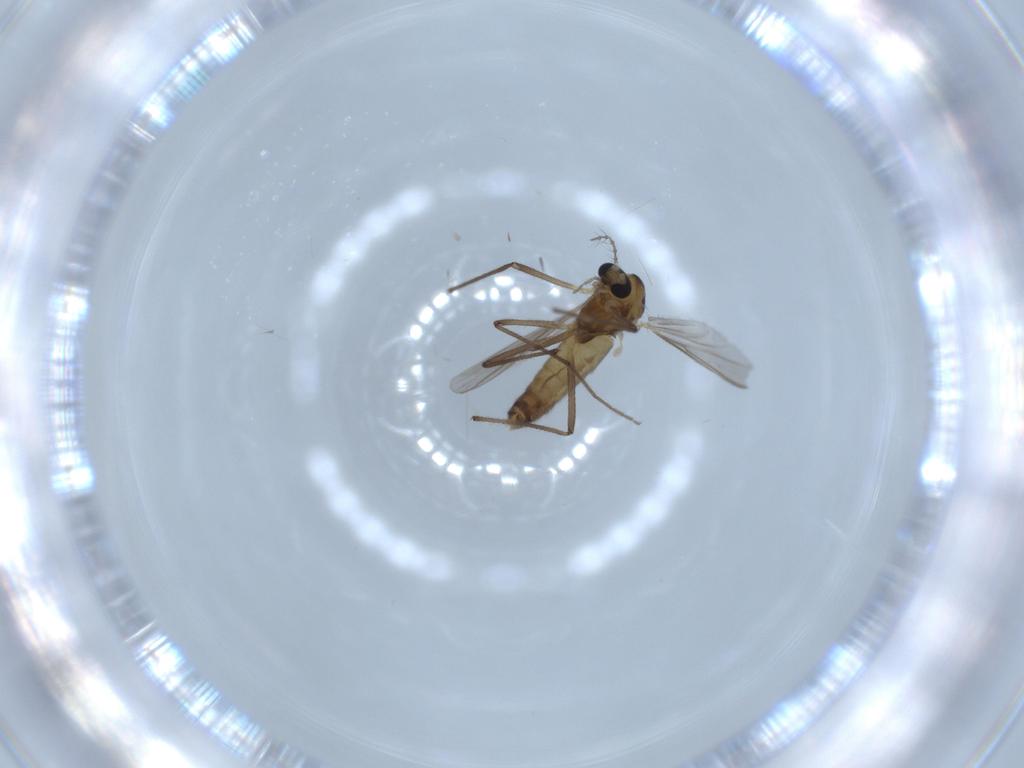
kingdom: Animalia
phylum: Arthropoda
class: Insecta
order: Diptera
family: Chironomidae
